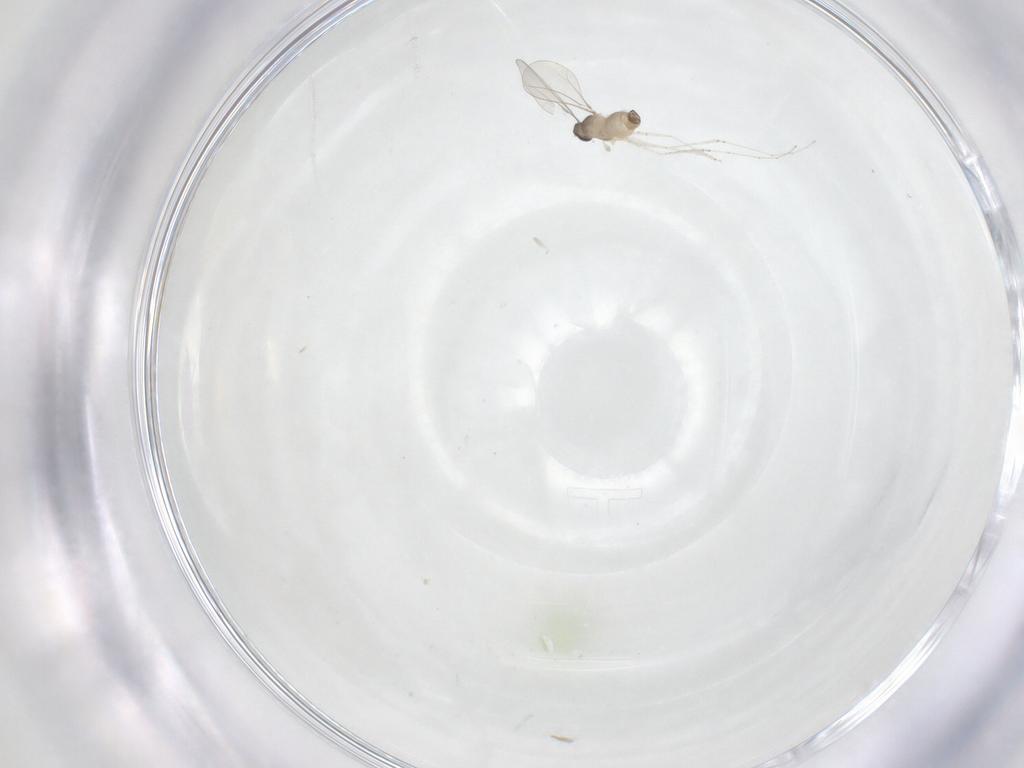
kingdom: Animalia
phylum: Arthropoda
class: Insecta
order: Diptera
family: Cecidomyiidae
